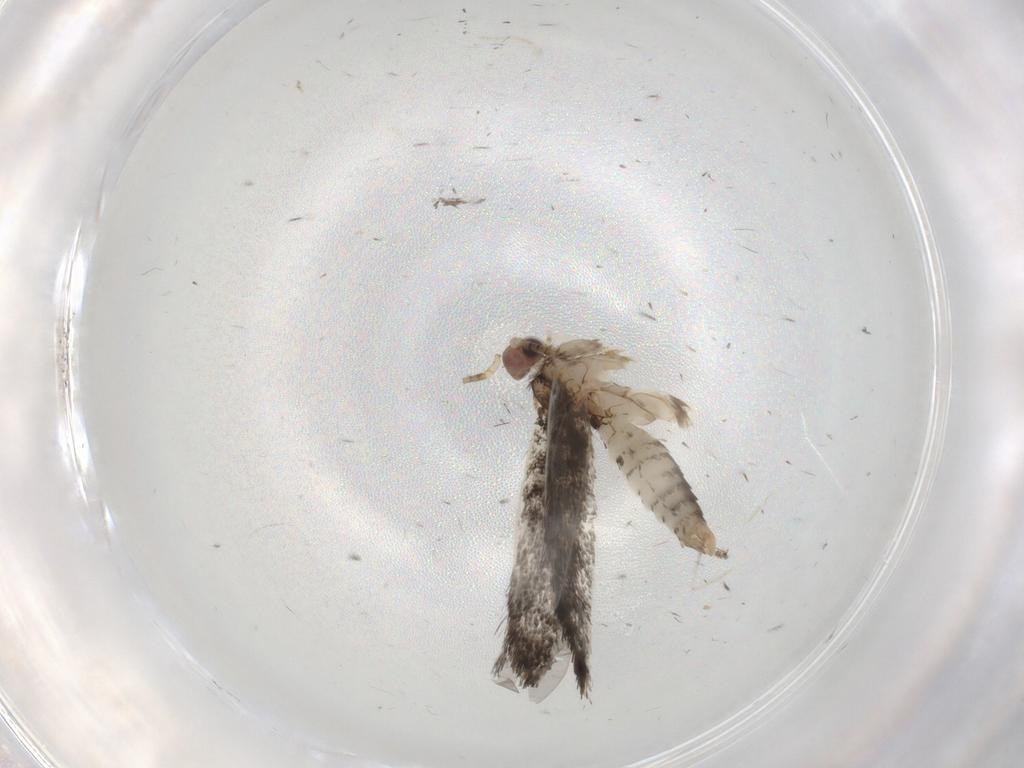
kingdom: Animalia
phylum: Arthropoda
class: Insecta
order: Lepidoptera
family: Tineidae
